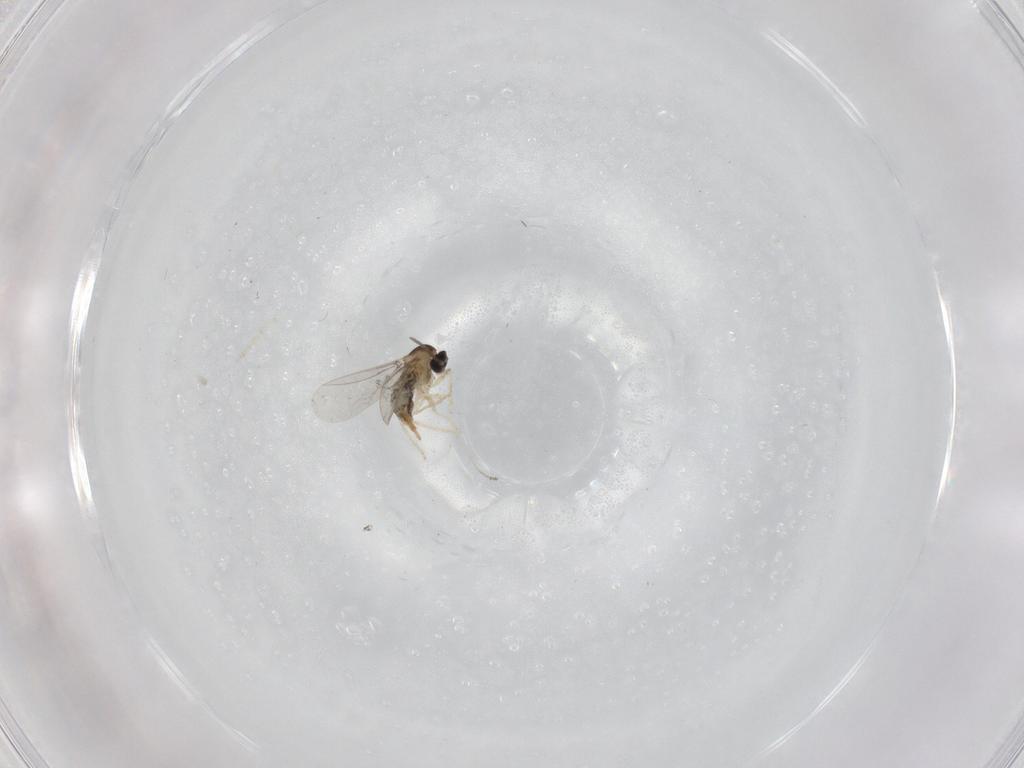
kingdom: Animalia
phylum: Arthropoda
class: Insecta
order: Diptera
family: Cecidomyiidae
